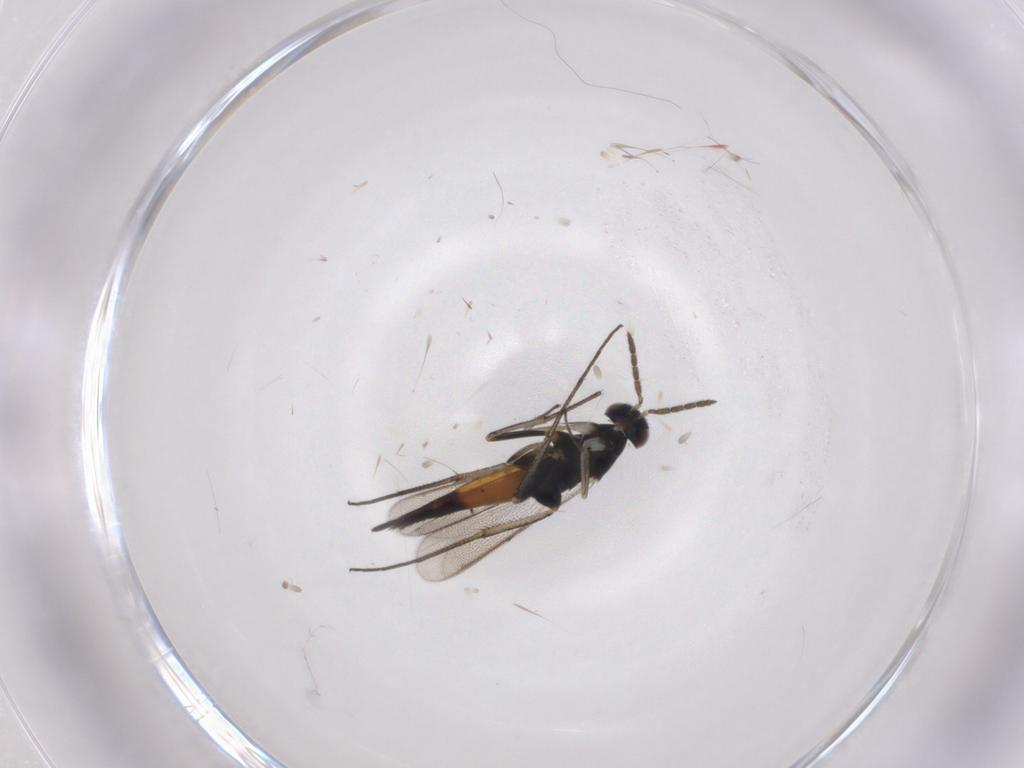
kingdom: Animalia
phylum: Arthropoda
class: Insecta
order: Hymenoptera
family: Eulophidae
